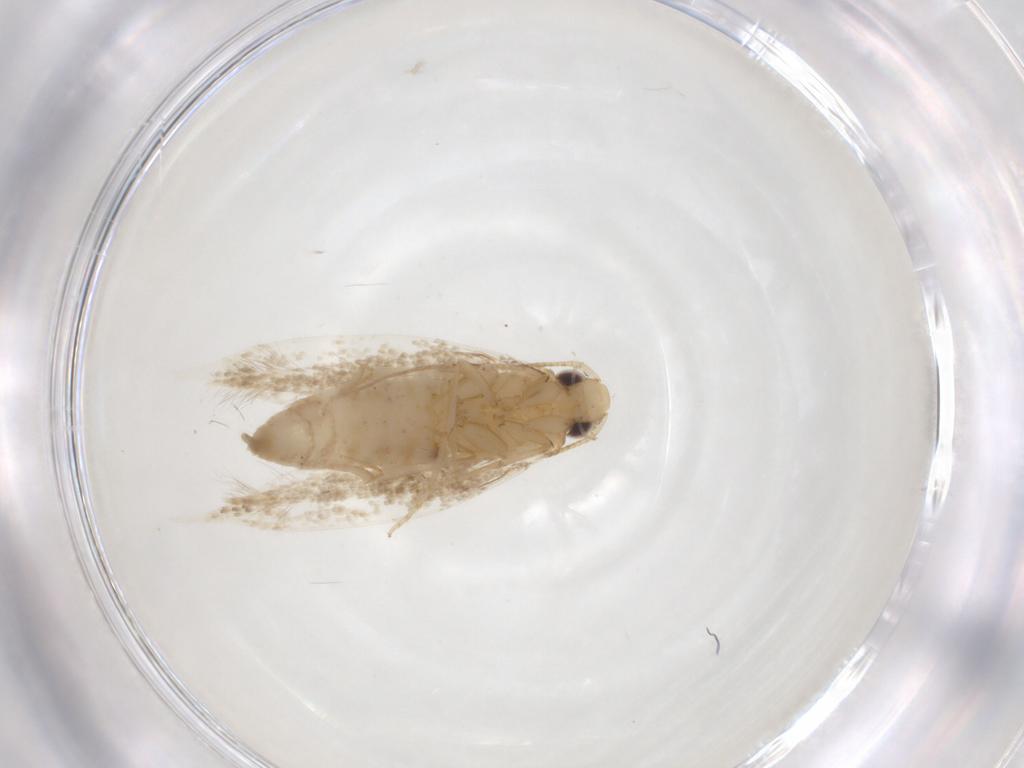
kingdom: Animalia
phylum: Arthropoda
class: Insecta
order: Lepidoptera
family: Tineidae
